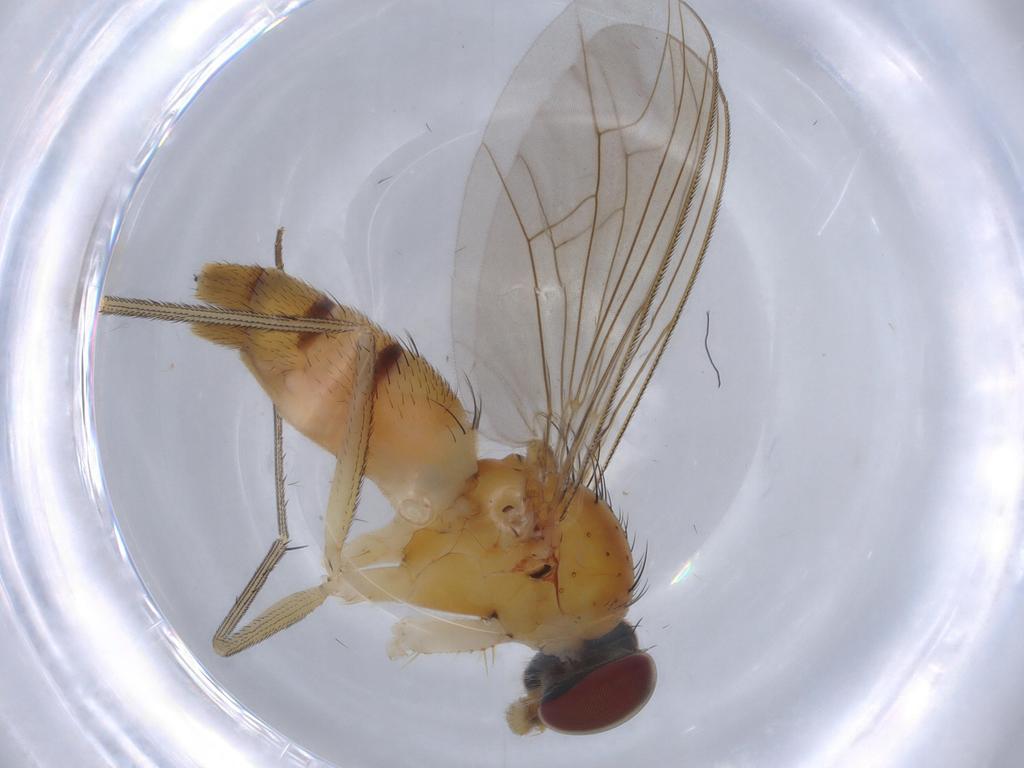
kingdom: Animalia
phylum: Arthropoda
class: Insecta
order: Diptera
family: Dolichopodidae
